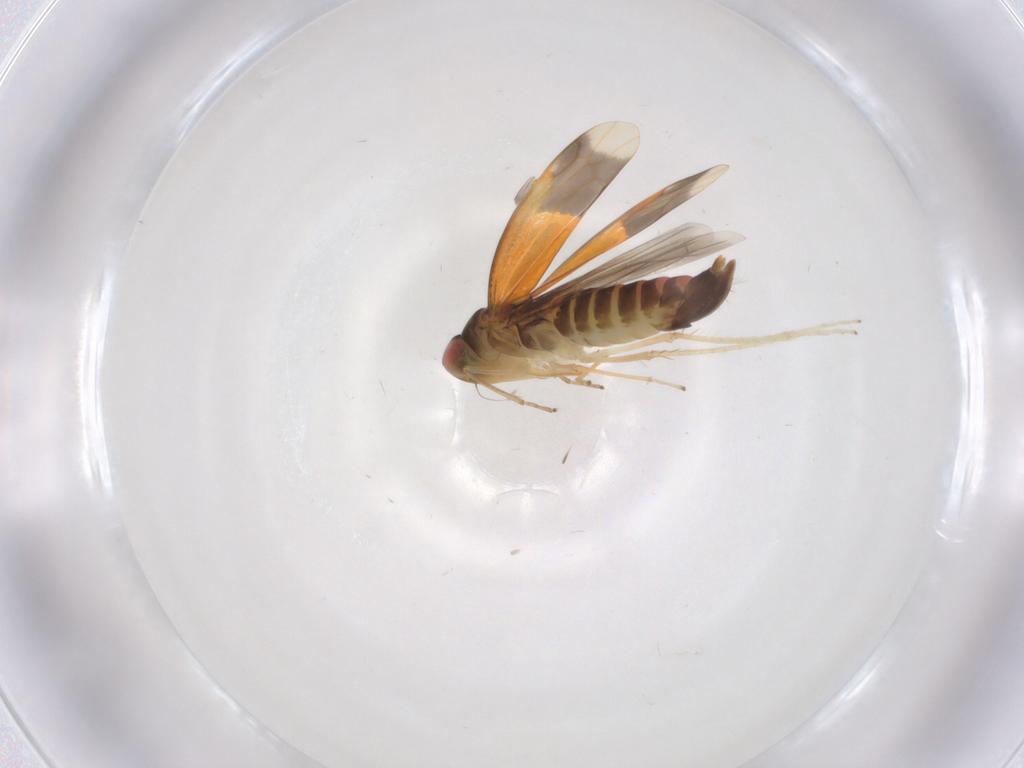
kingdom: Animalia
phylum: Arthropoda
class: Insecta
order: Hemiptera
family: Cicadellidae
